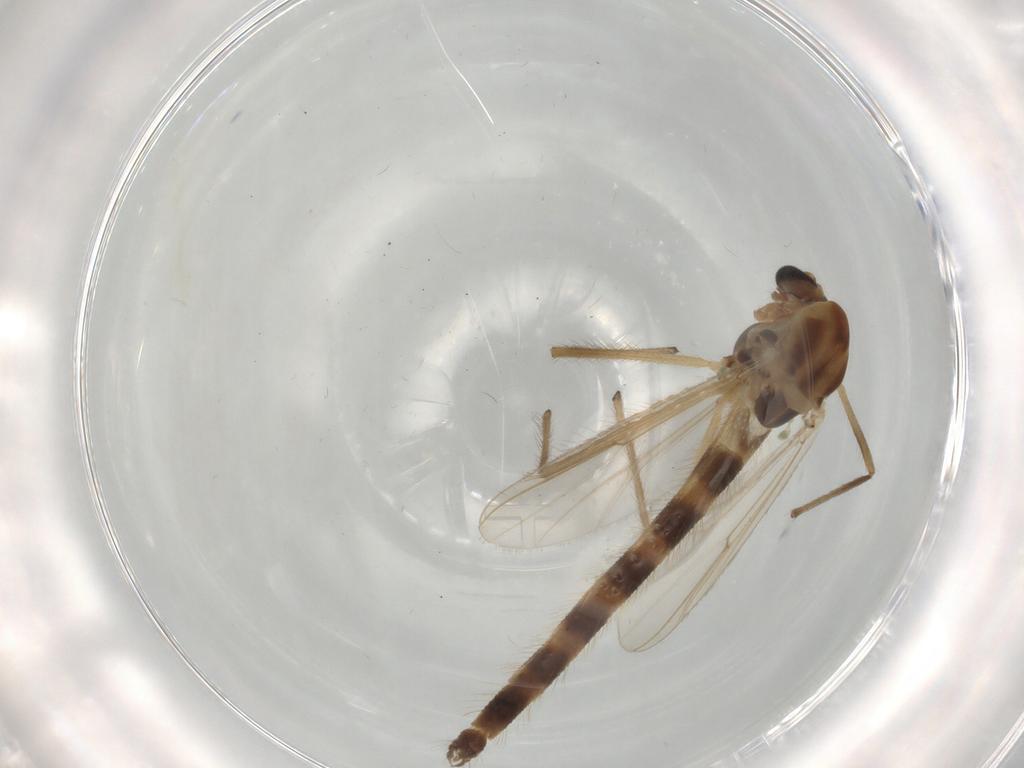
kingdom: Animalia
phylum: Arthropoda
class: Insecta
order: Diptera
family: Chironomidae
